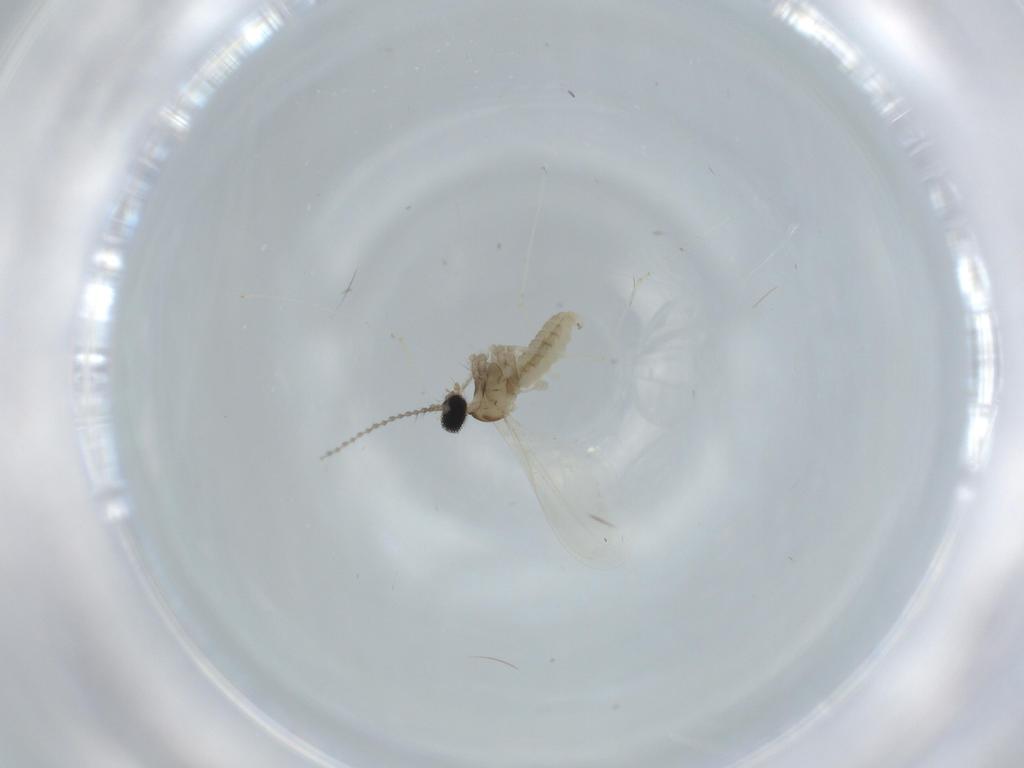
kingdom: Animalia
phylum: Arthropoda
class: Insecta
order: Diptera
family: Cecidomyiidae
